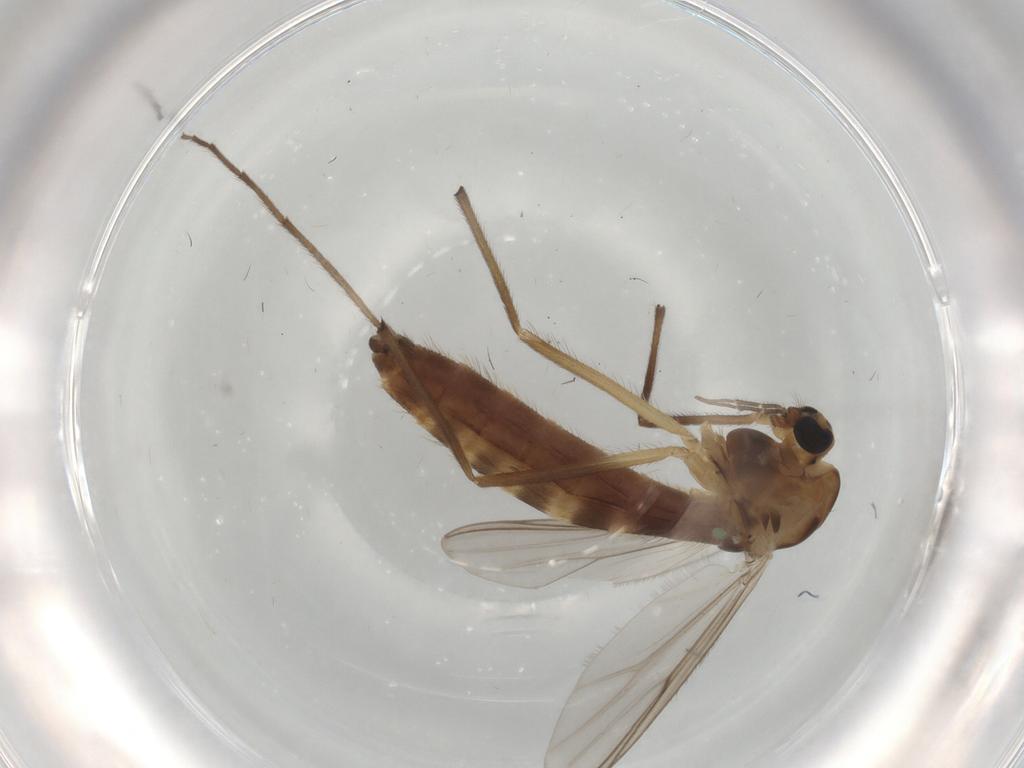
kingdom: Animalia
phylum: Arthropoda
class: Insecta
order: Diptera
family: Chironomidae
